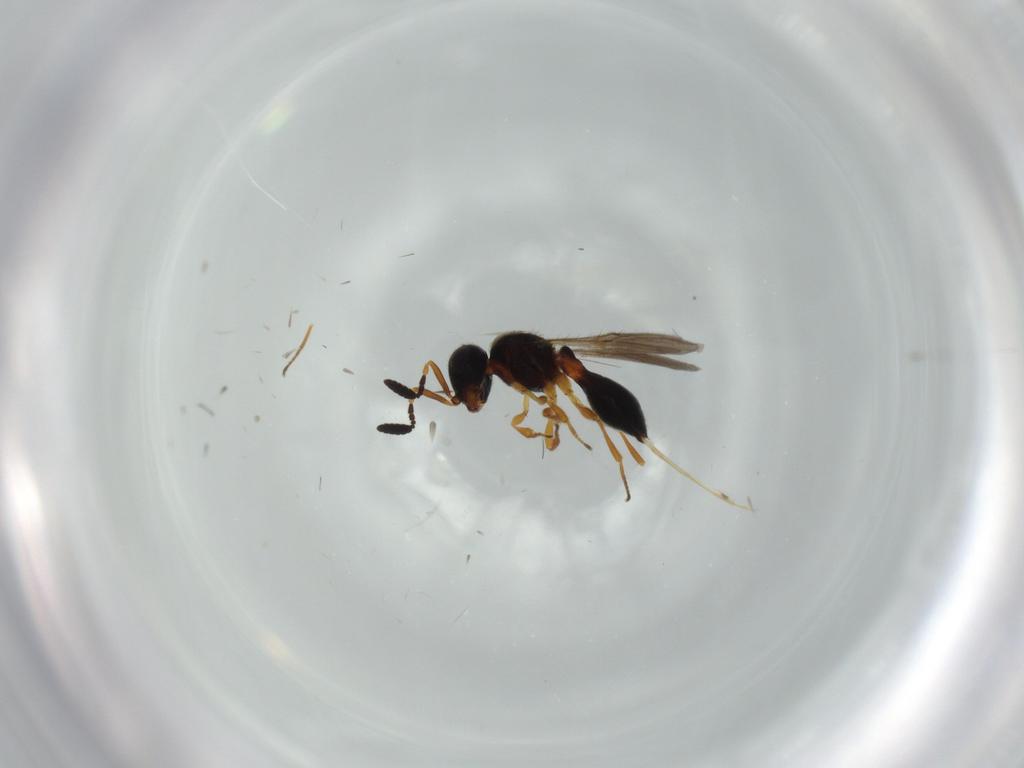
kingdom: Animalia
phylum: Arthropoda
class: Insecta
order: Hymenoptera
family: Scelionidae
